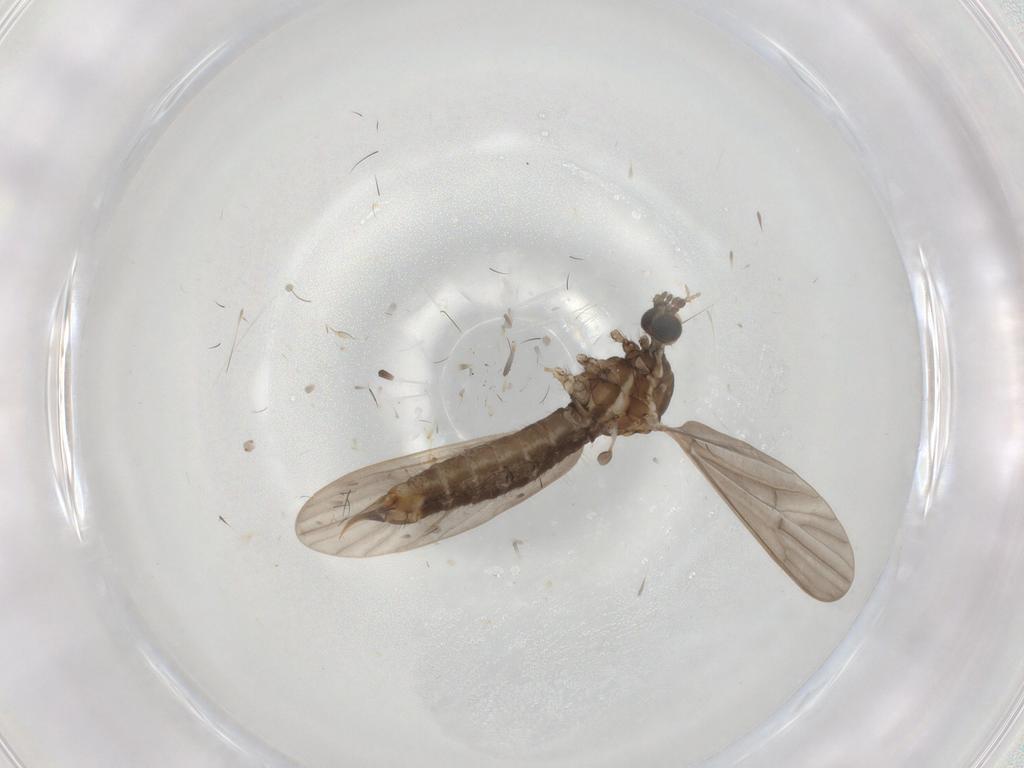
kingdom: Animalia
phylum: Arthropoda
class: Insecta
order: Diptera
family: Limoniidae
